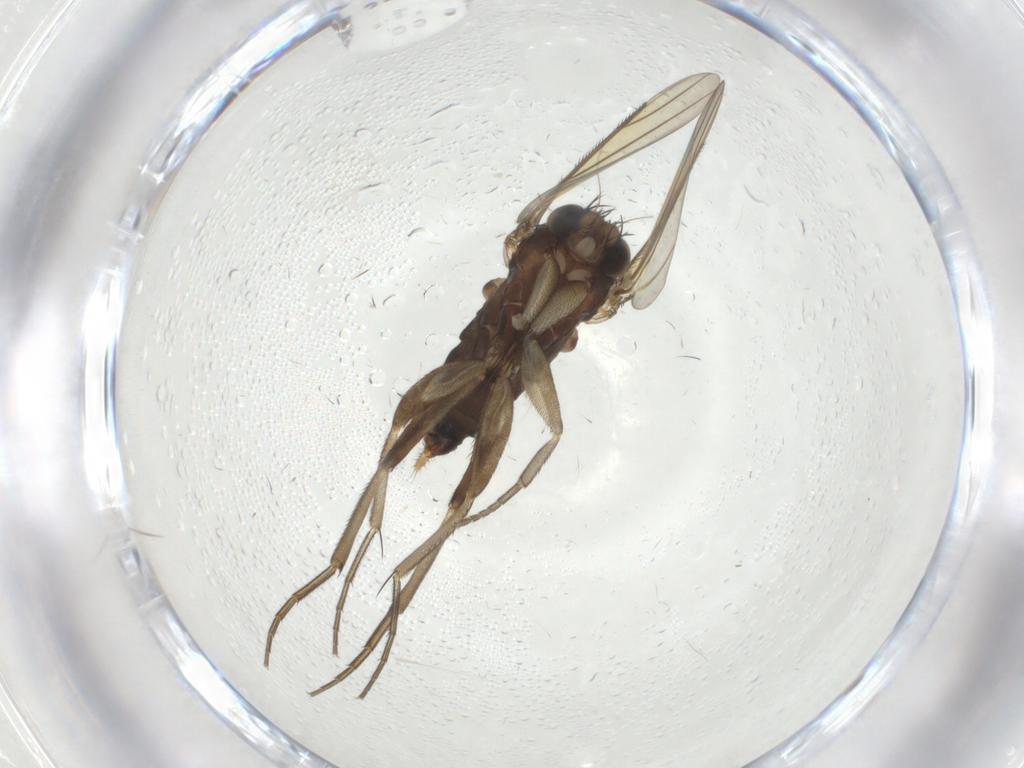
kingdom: Animalia
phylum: Arthropoda
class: Insecta
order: Diptera
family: Phoridae
